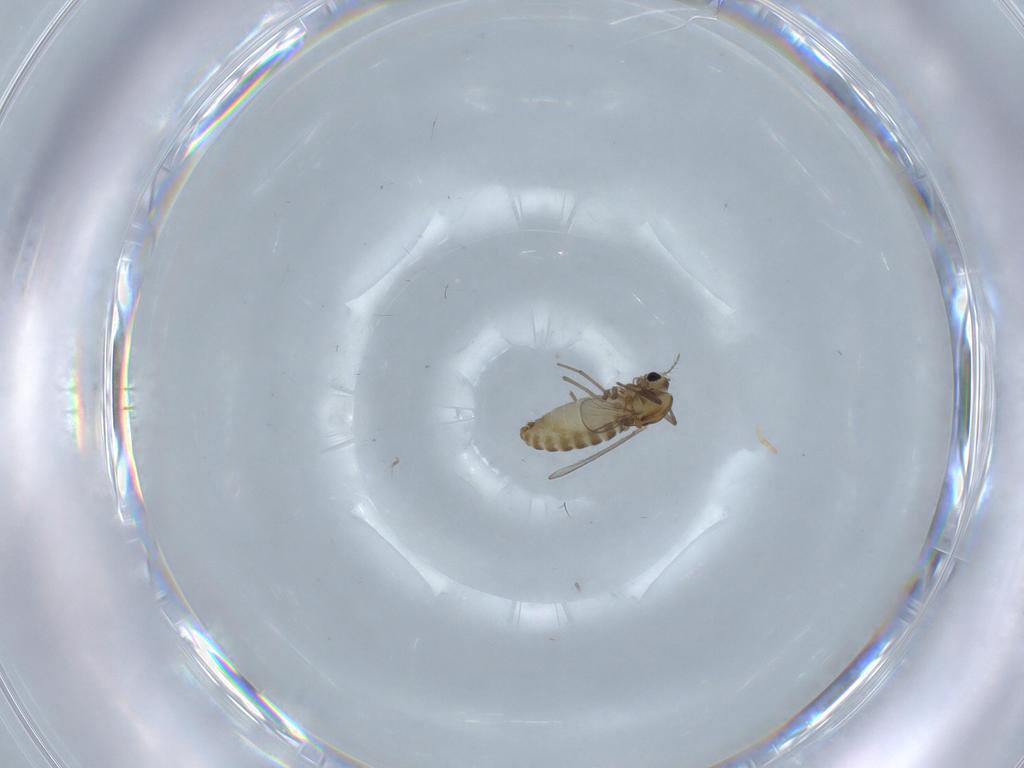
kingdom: Animalia
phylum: Arthropoda
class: Insecta
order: Diptera
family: Chironomidae
